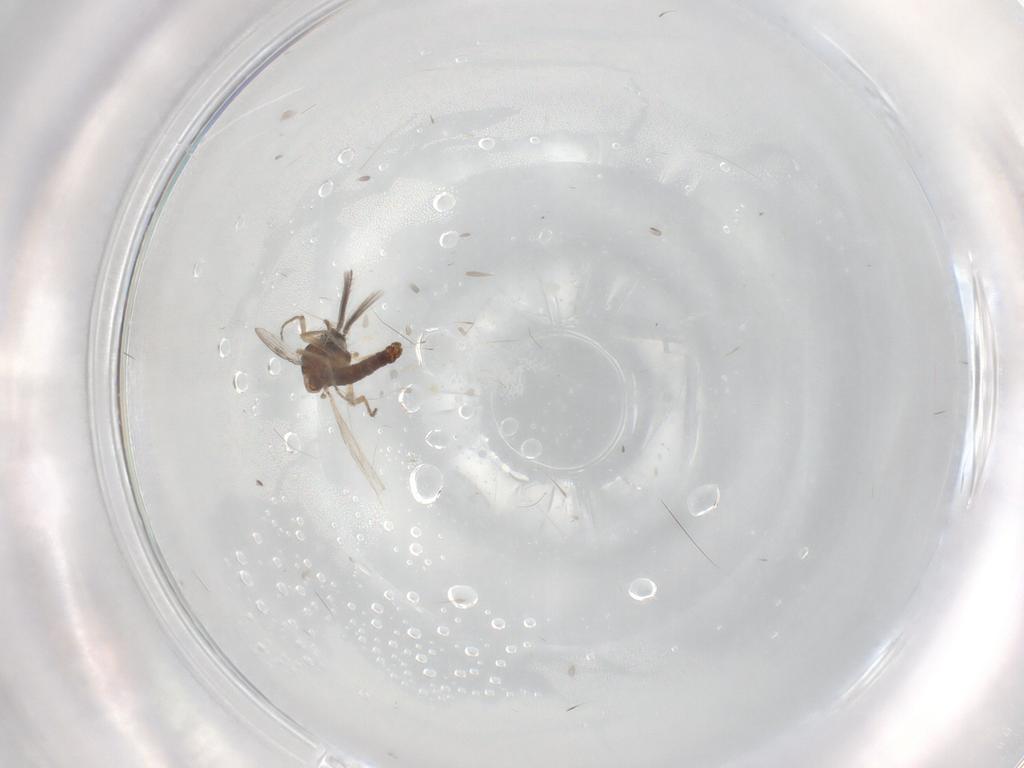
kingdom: Animalia
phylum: Arthropoda
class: Insecta
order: Diptera
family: Ceratopogonidae
